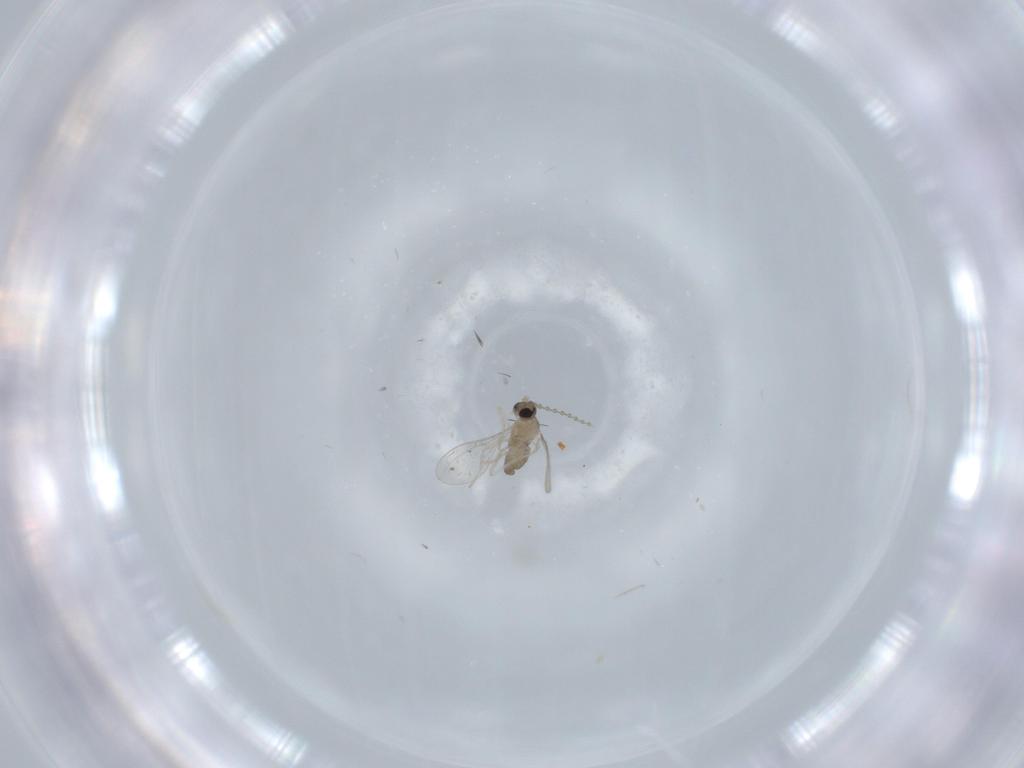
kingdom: Animalia
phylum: Arthropoda
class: Insecta
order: Diptera
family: Cecidomyiidae
